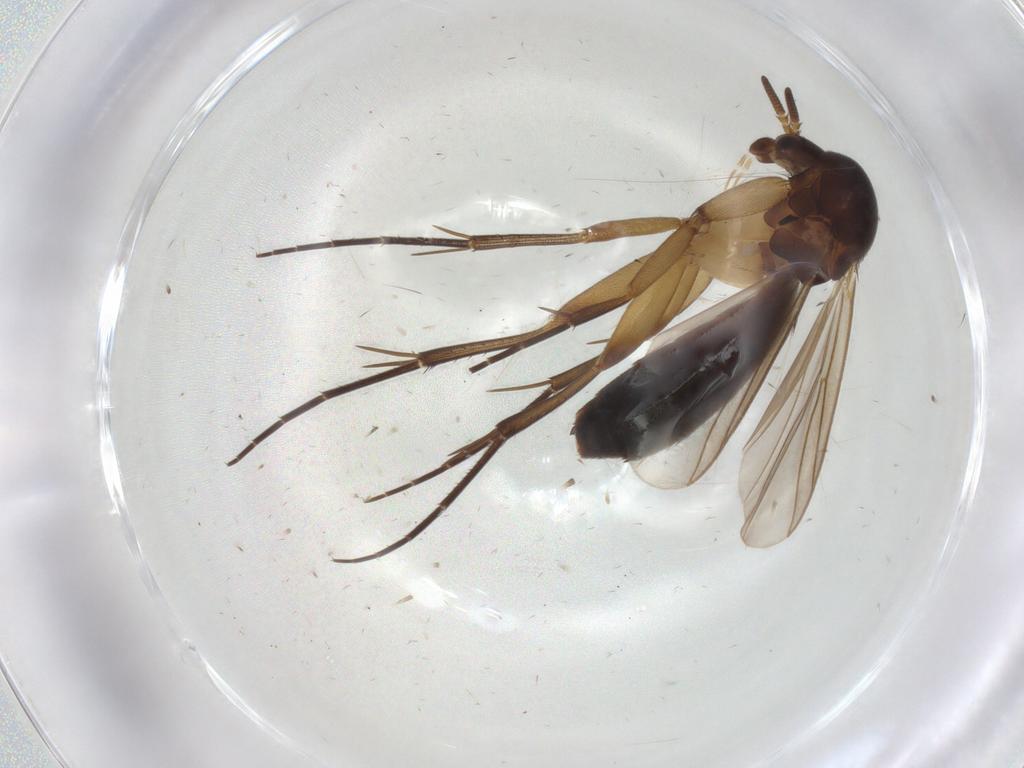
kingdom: Animalia
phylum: Arthropoda
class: Insecta
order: Diptera
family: Mycetophilidae
